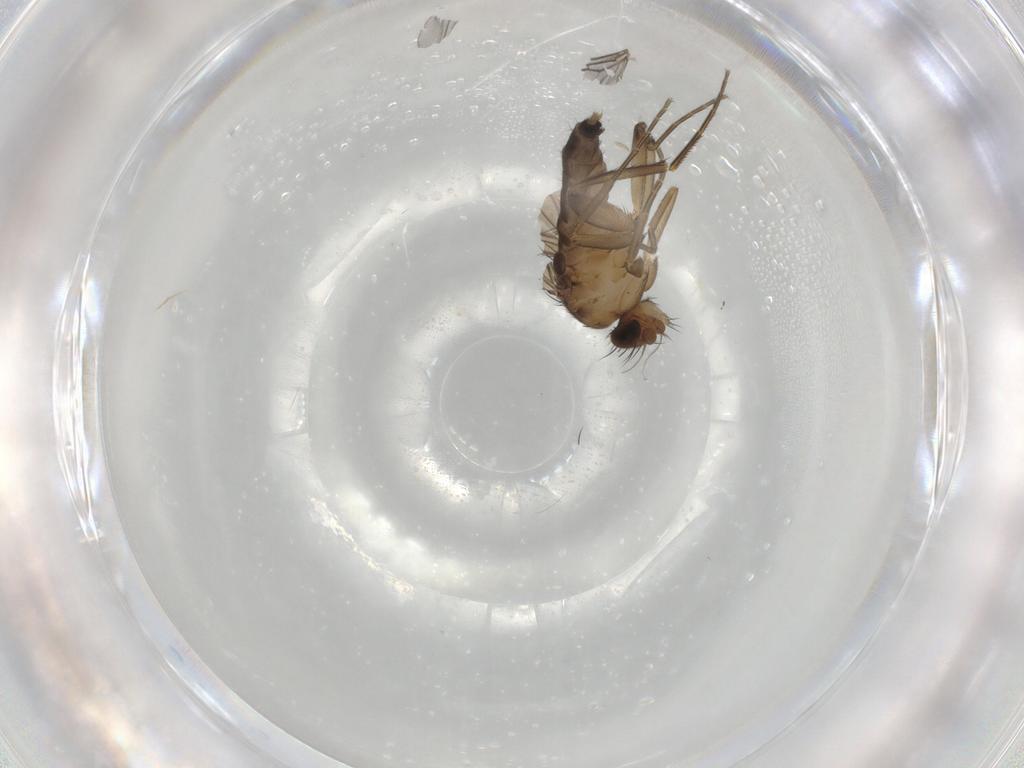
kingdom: Animalia
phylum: Arthropoda
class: Insecta
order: Diptera
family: Phoridae
